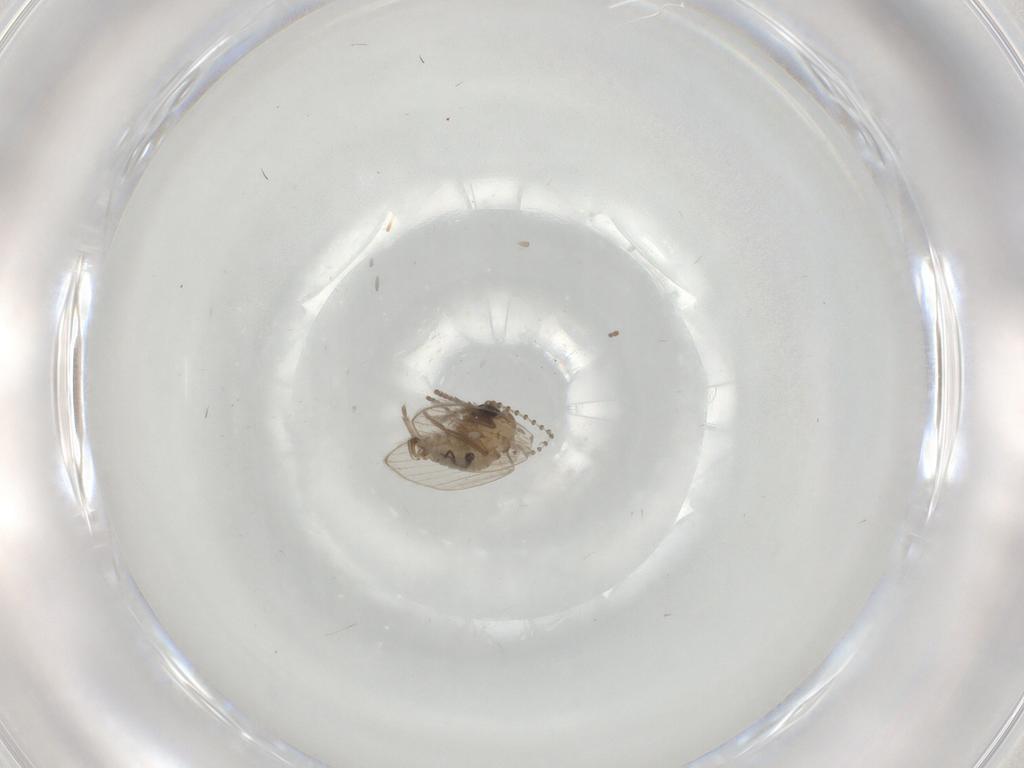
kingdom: Animalia
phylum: Arthropoda
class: Insecta
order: Diptera
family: Psychodidae
